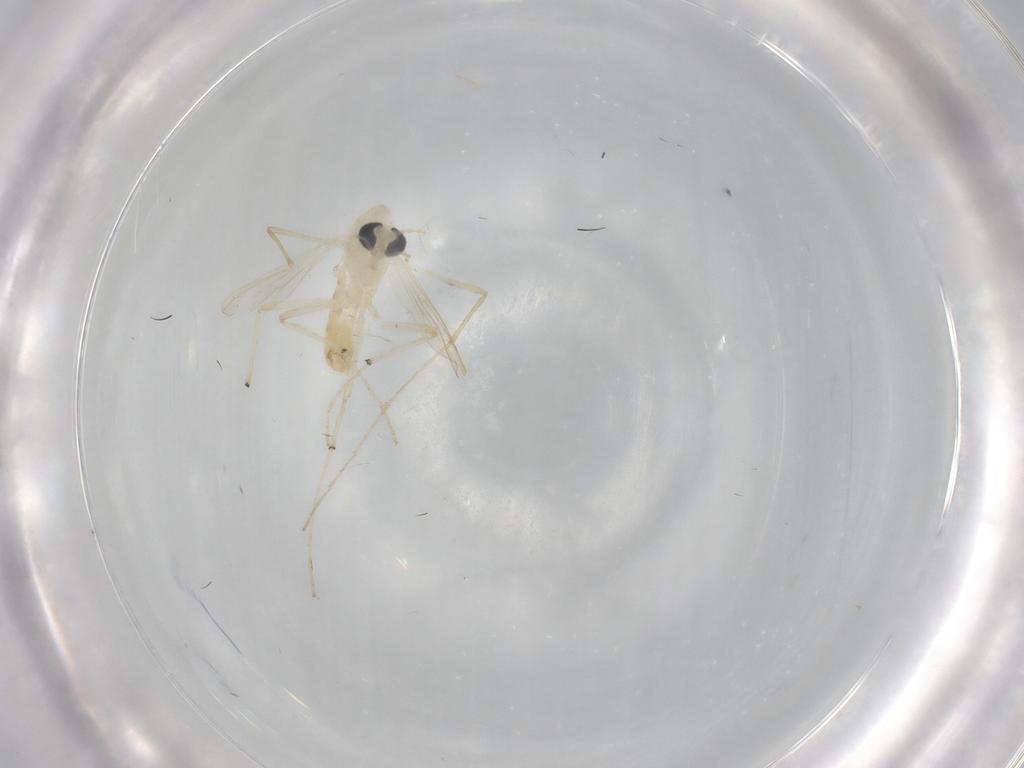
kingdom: Animalia
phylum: Arthropoda
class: Insecta
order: Diptera
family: Chironomidae
